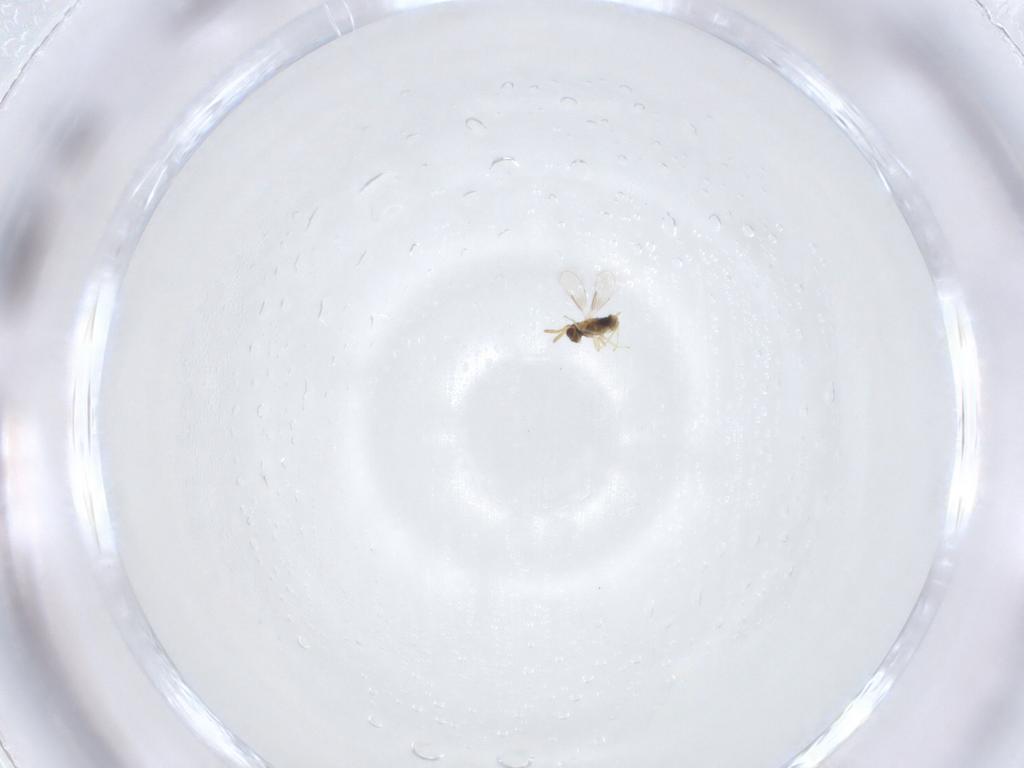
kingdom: Animalia
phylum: Arthropoda
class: Insecta
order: Hymenoptera
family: Aphelinidae
